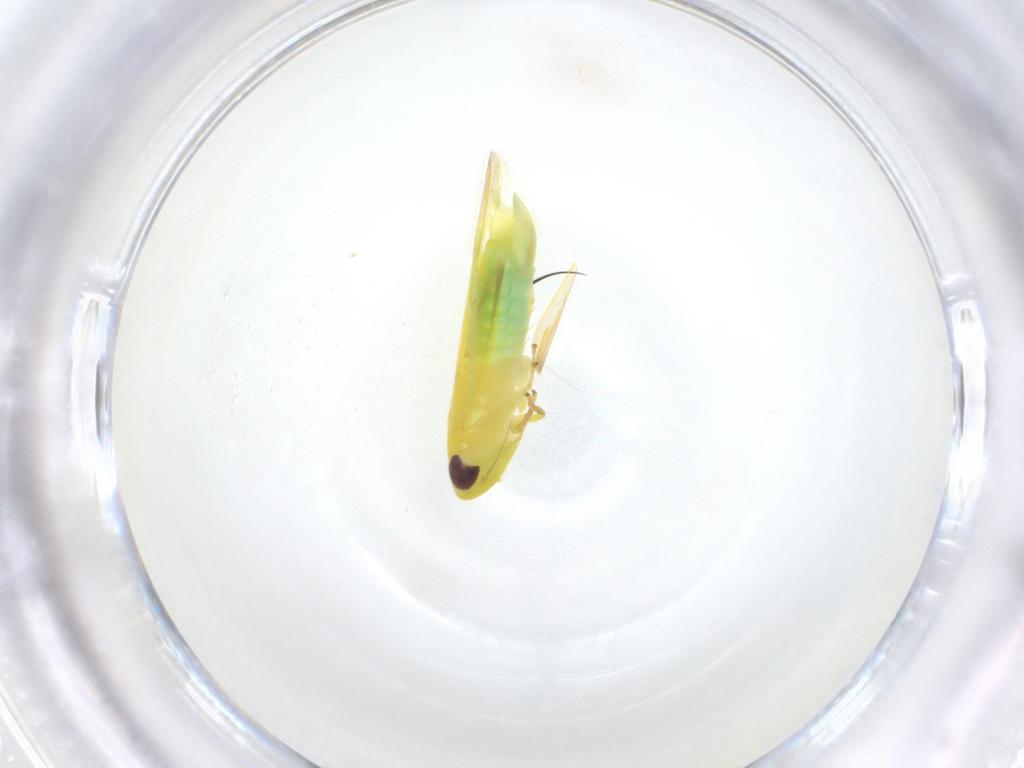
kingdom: Animalia
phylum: Arthropoda
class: Insecta
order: Hemiptera
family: Cicadellidae
